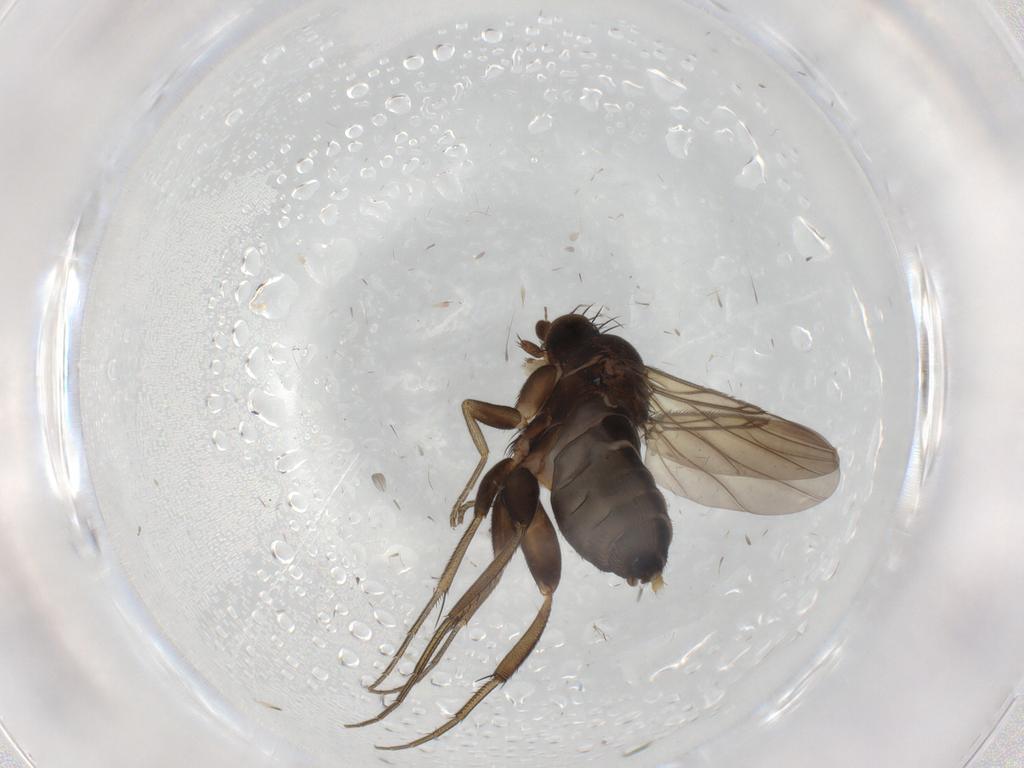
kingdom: Animalia
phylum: Arthropoda
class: Insecta
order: Diptera
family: Phoridae
